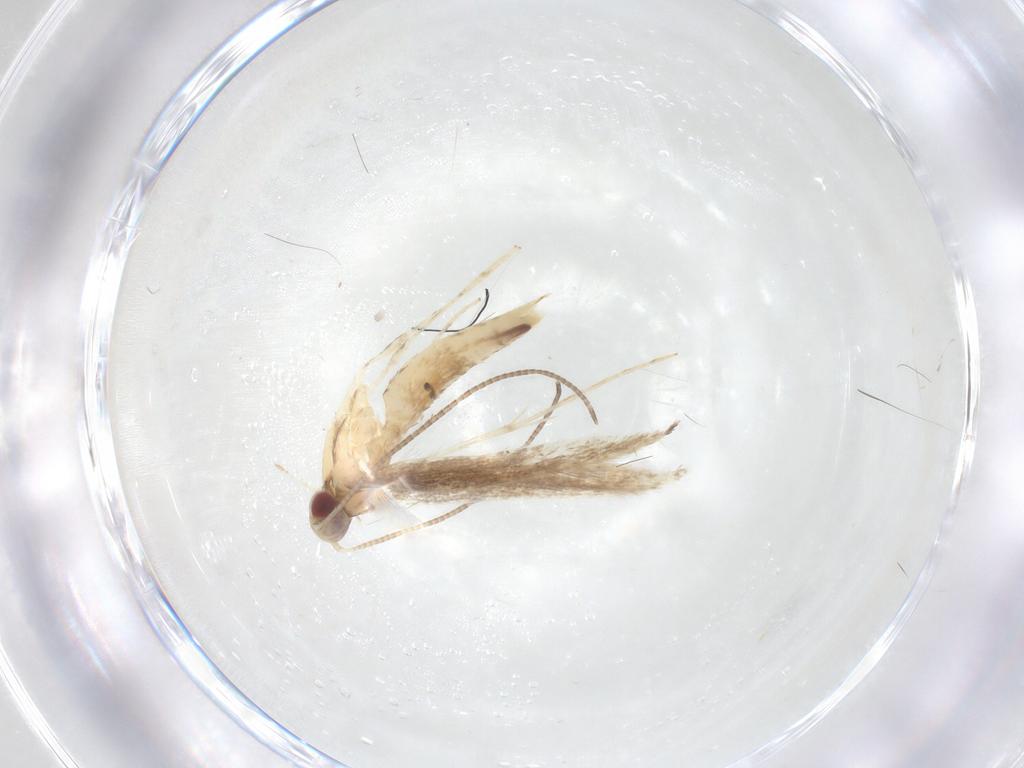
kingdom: Animalia
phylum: Arthropoda
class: Insecta
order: Lepidoptera
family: Gracillariidae
